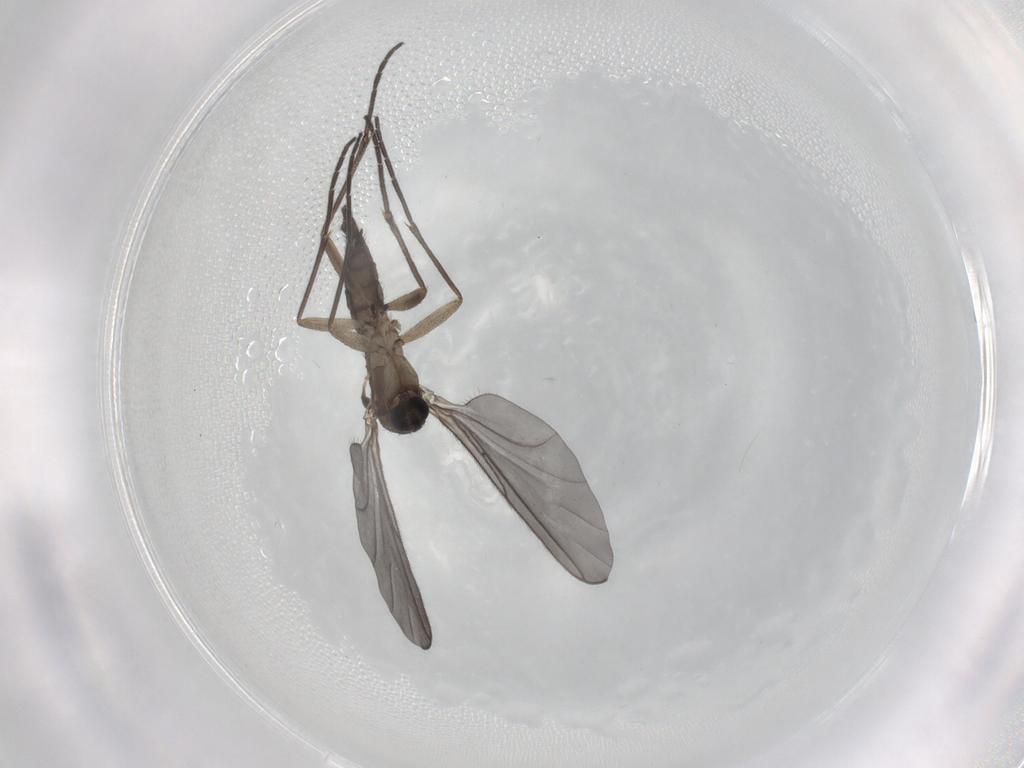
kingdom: Animalia
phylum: Arthropoda
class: Insecta
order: Diptera
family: Sciaridae
